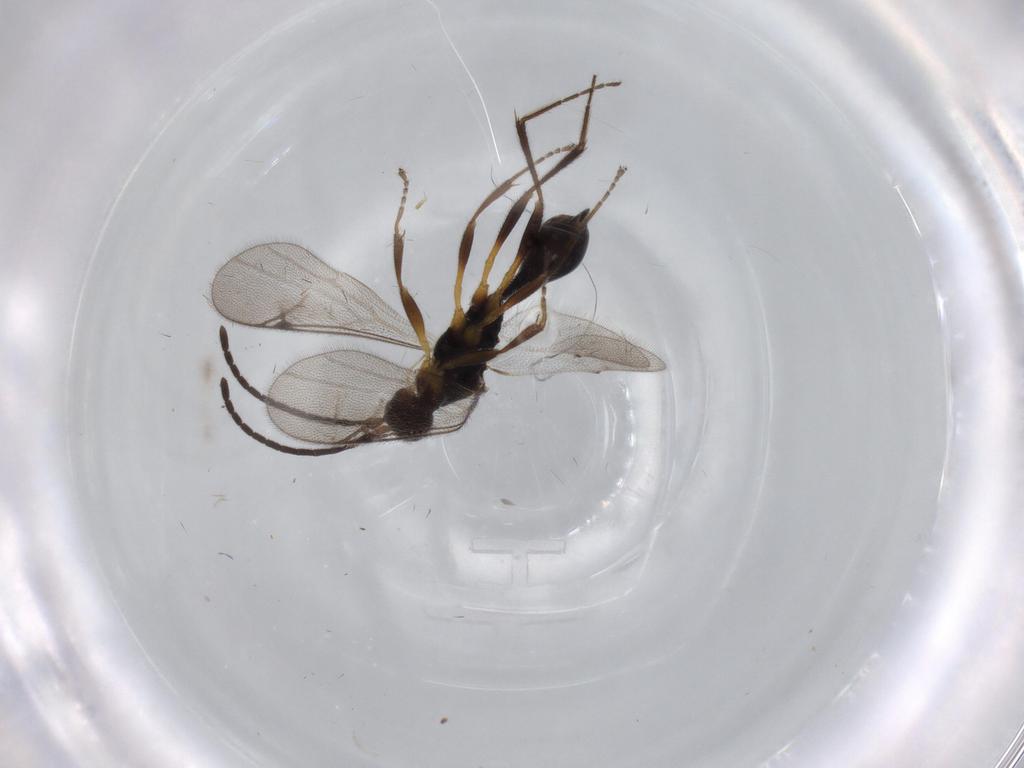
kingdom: Animalia
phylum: Arthropoda
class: Insecta
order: Hymenoptera
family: Proctotrupidae
